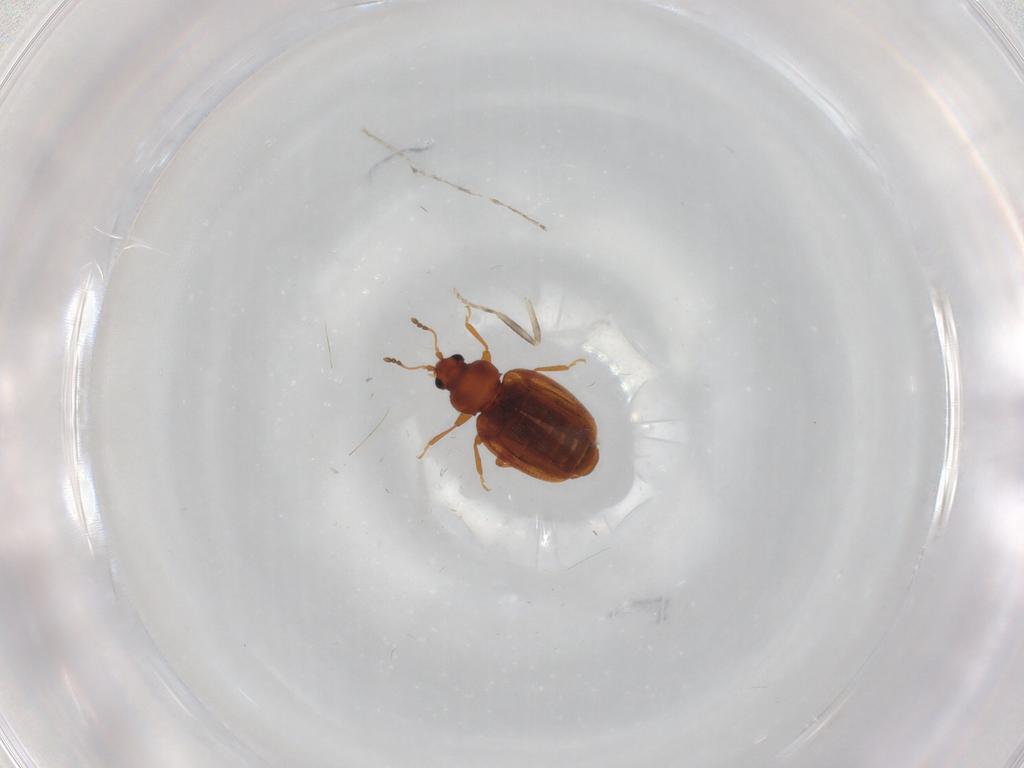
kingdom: Animalia
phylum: Arthropoda
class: Insecta
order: Coleoptera
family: Latridiidae
